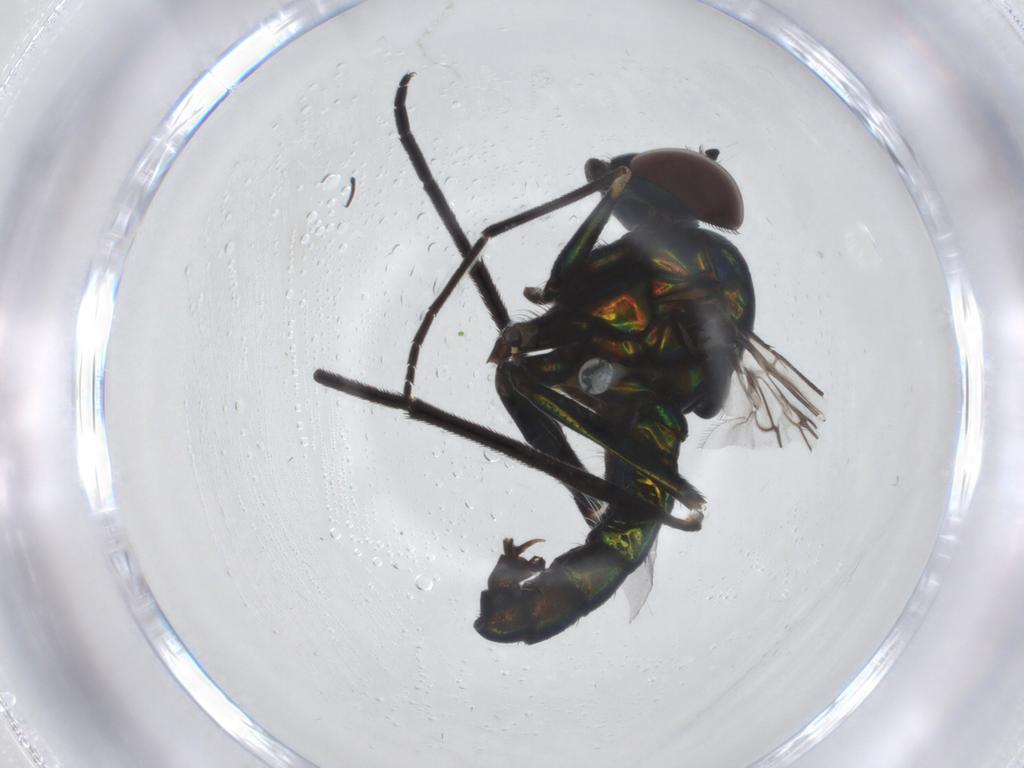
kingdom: Animalia
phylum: Arthropoda
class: Insecta
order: Diptera
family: Dolichopodidae
